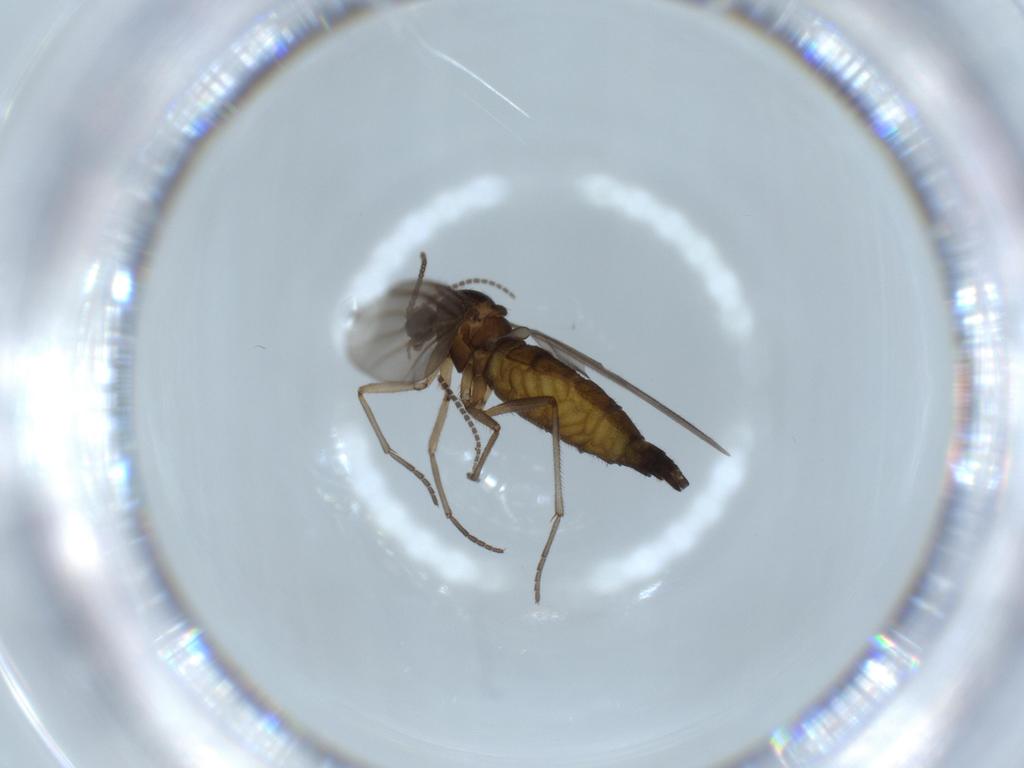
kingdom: Animalia
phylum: Arthropoda
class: Insecta
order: Diptera
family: Sciaridae
